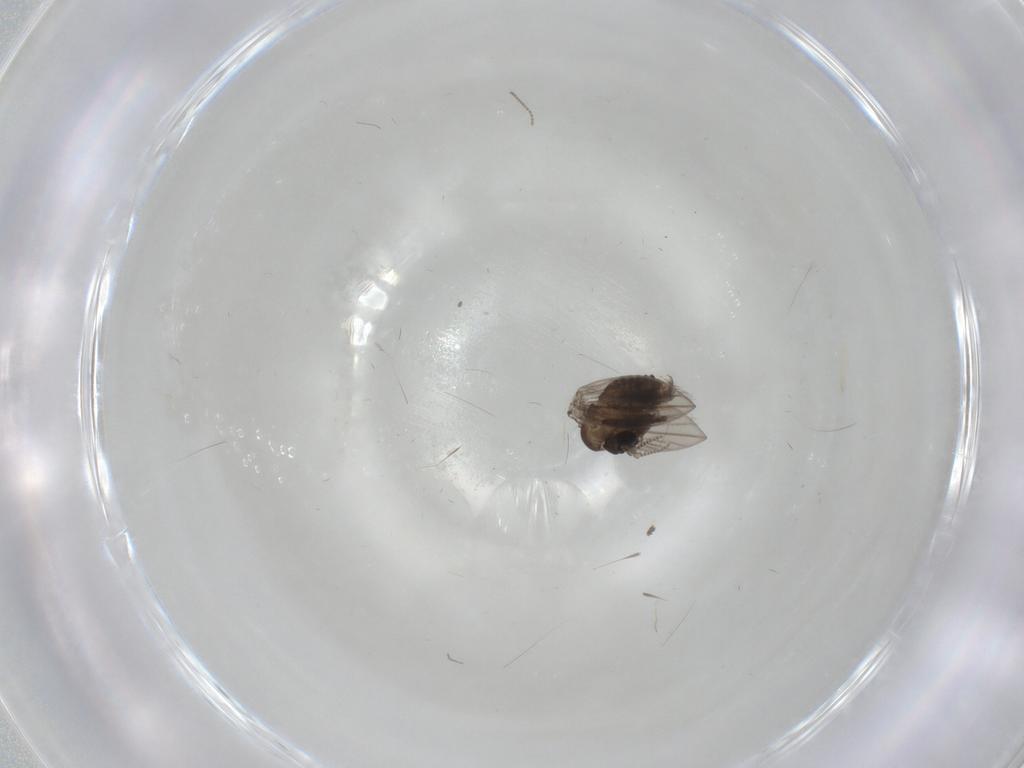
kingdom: Animalia
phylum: Arthropoda
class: Insecta
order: Diptera
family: Psychodidae
